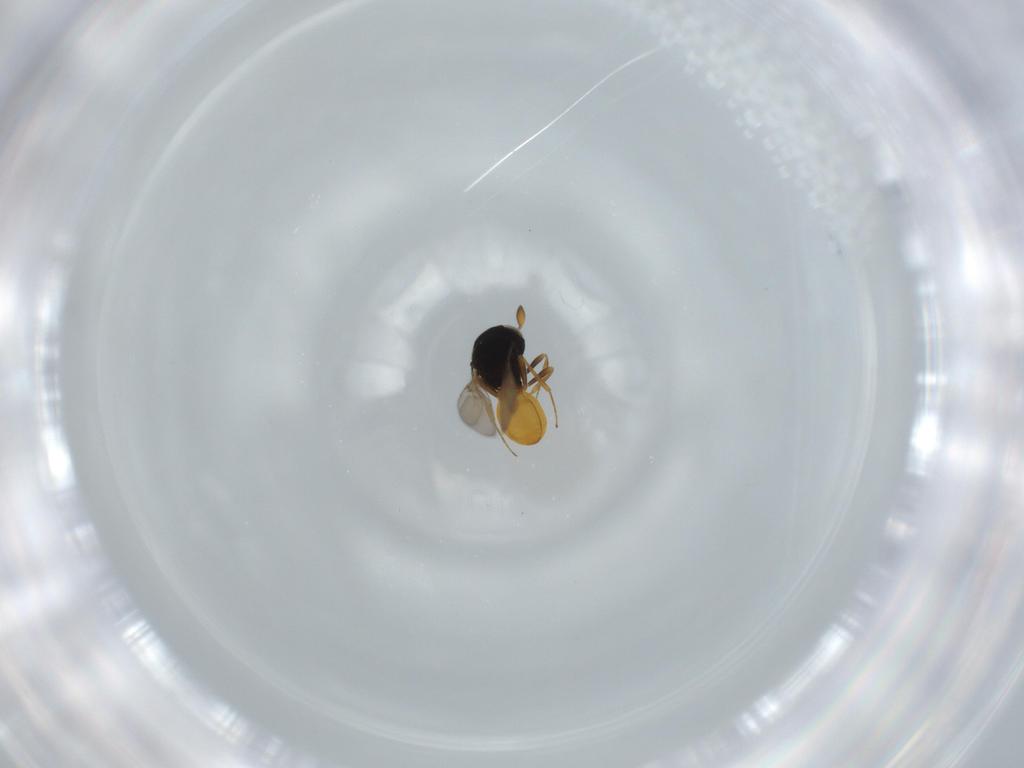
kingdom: Animalia
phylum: Arthropoda
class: Insecta
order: Hymenoptera
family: Scelionidae
